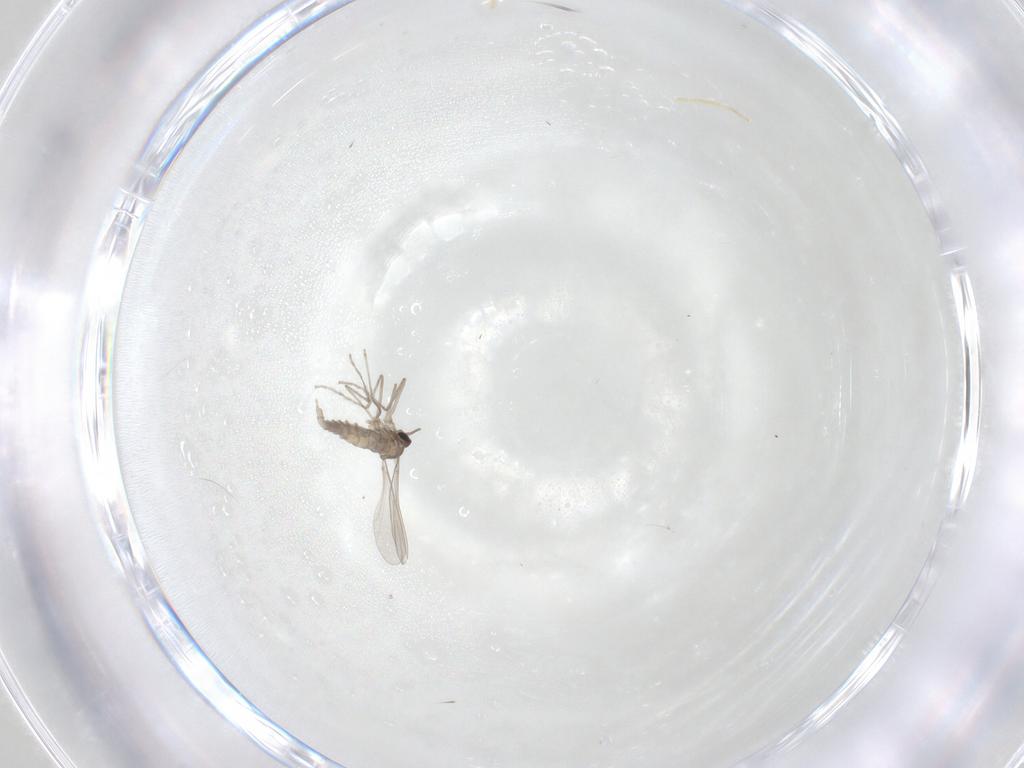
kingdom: Animalia
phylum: Arthropoda
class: Insecta
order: Diptera
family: Cecidomyiidae
